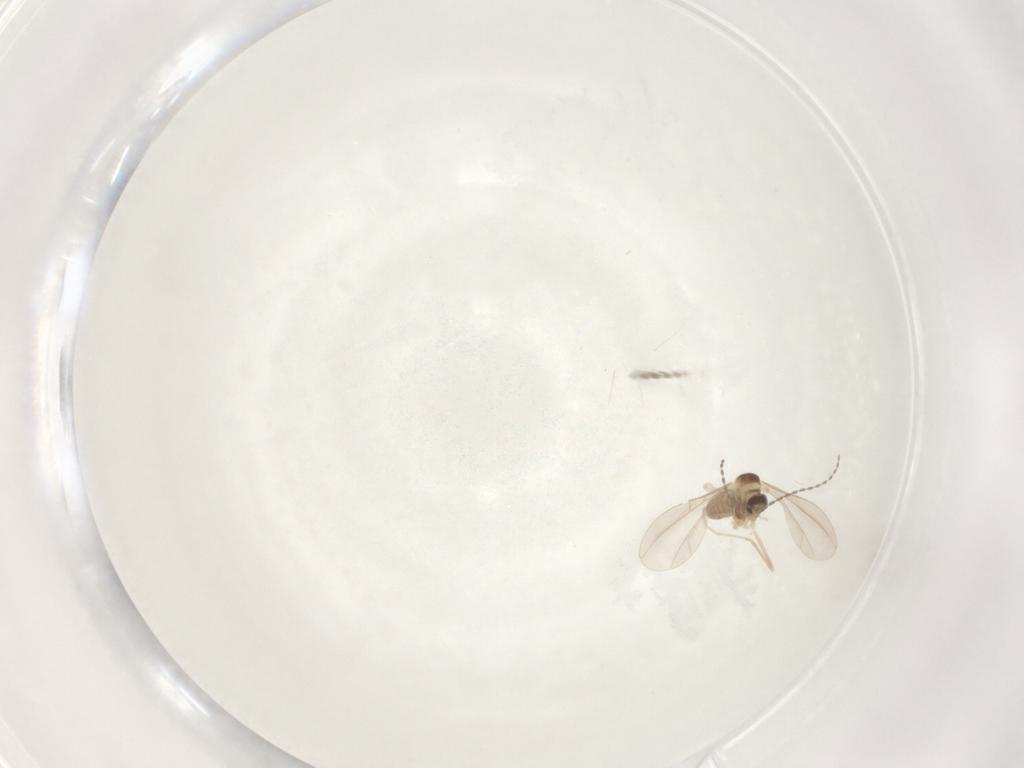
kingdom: Animalia
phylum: Arthropoda
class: Insecta
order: Diptera
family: Cecidomyiidae
